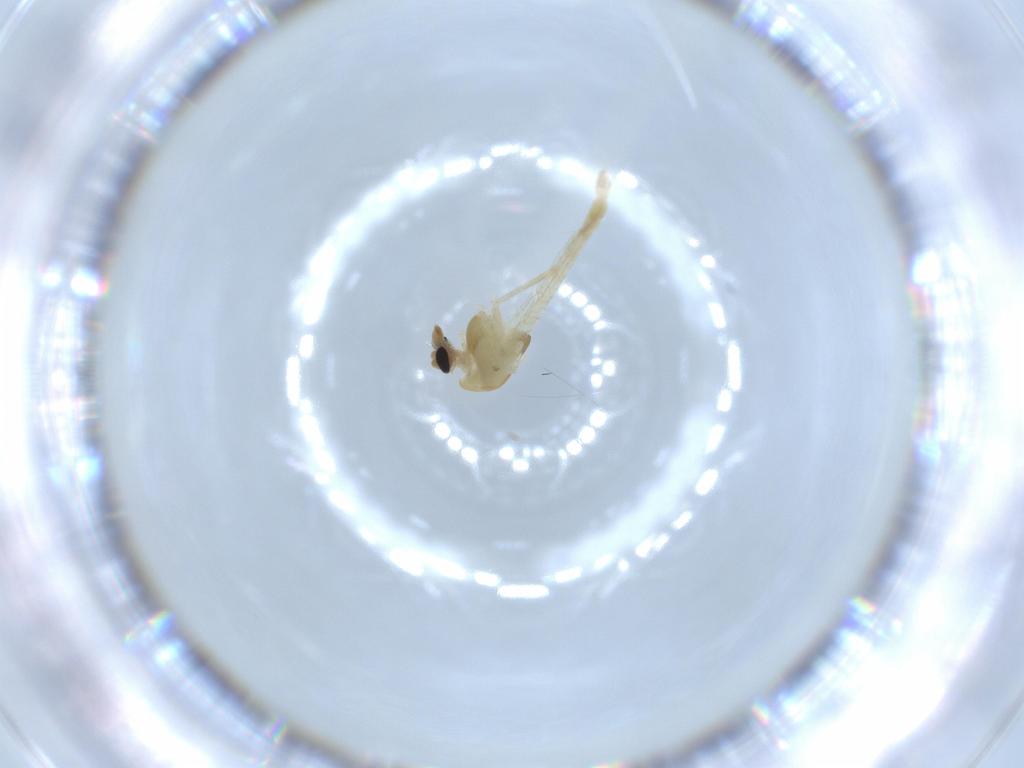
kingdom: Animalia
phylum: Arthropoda
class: Insecta
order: Diptera
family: Chironomidae
